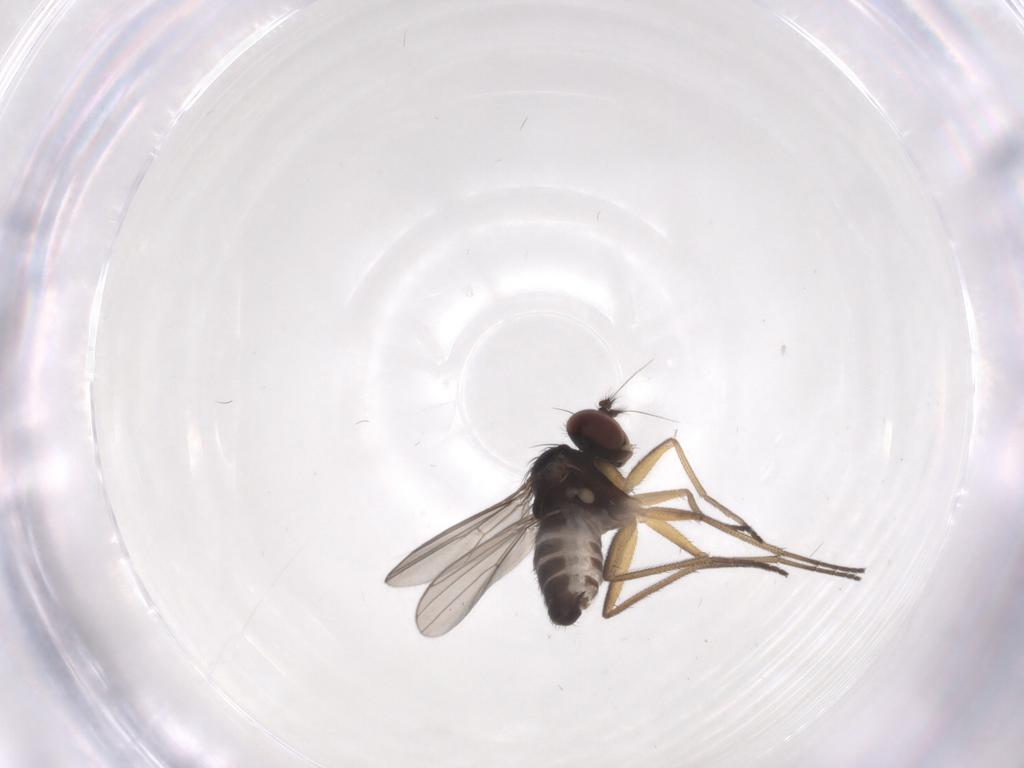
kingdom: Animalia
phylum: Arthropoda
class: Insecta
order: Diptera
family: Dolichopodidae
